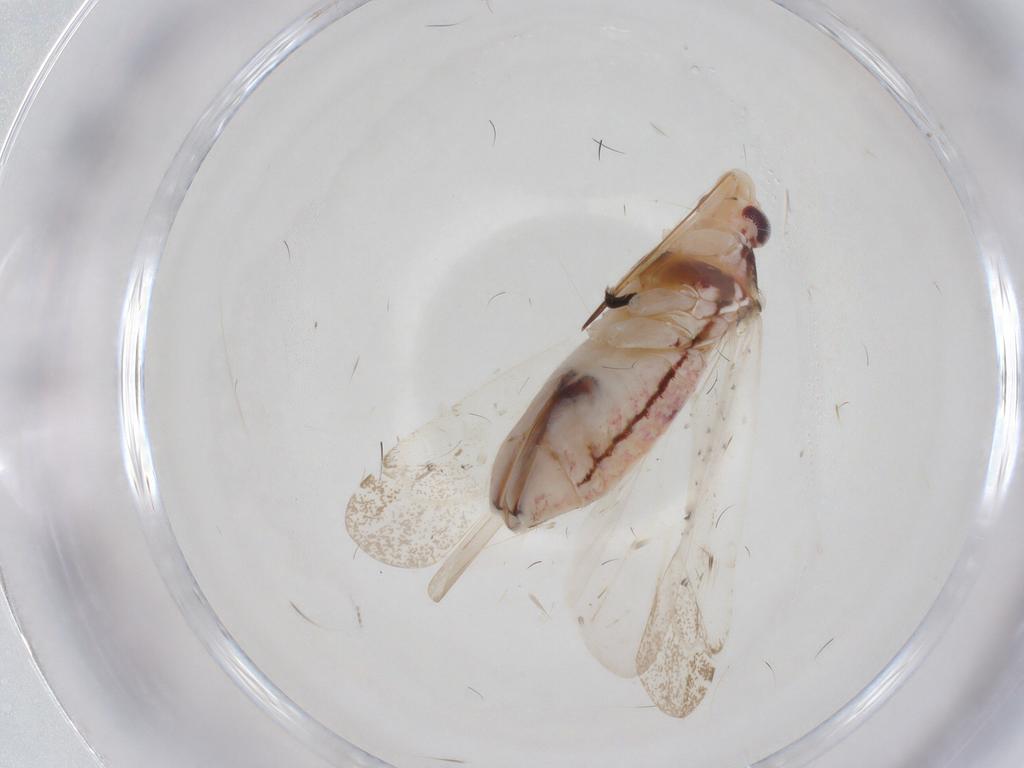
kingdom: Animalia
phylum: Arthropoda
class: Insecta
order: Hemiptera
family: Miridae
